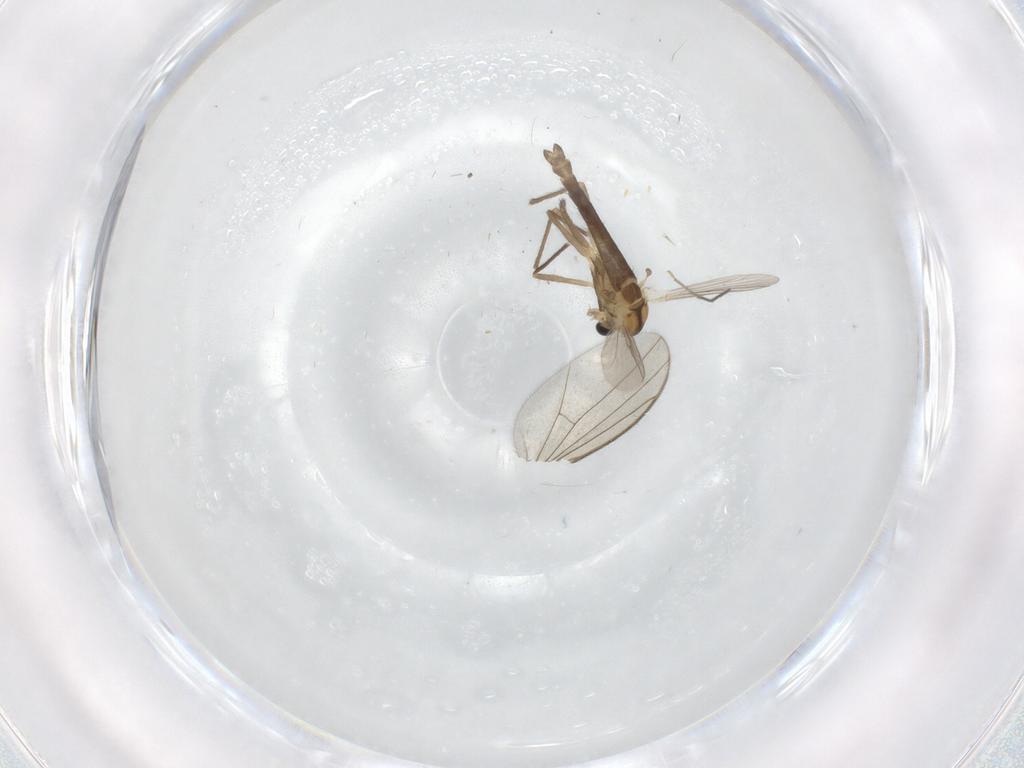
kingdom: Animalia
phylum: Arthropoda
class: Insecta
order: Diptera
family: Chironomidae
